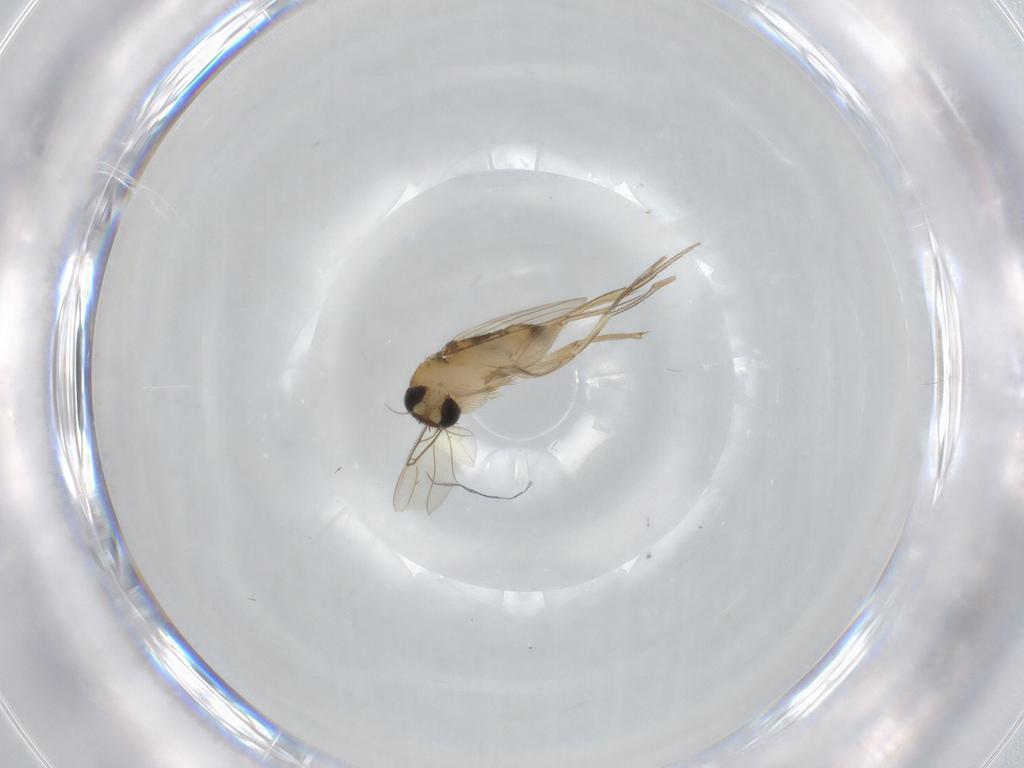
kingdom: Animalia
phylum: Arthropoda
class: Insecta
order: Diptera
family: Phoridae
